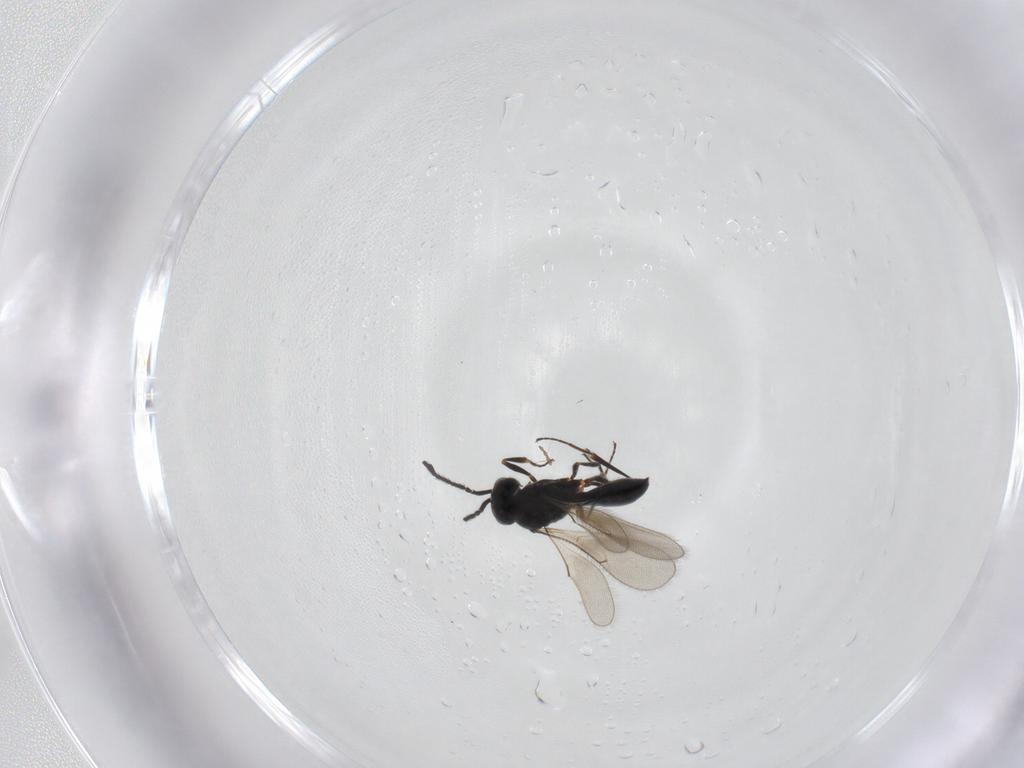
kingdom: Animalia
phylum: Arthropoda
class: Insecta
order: Hymenoptera
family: Scelionidae
